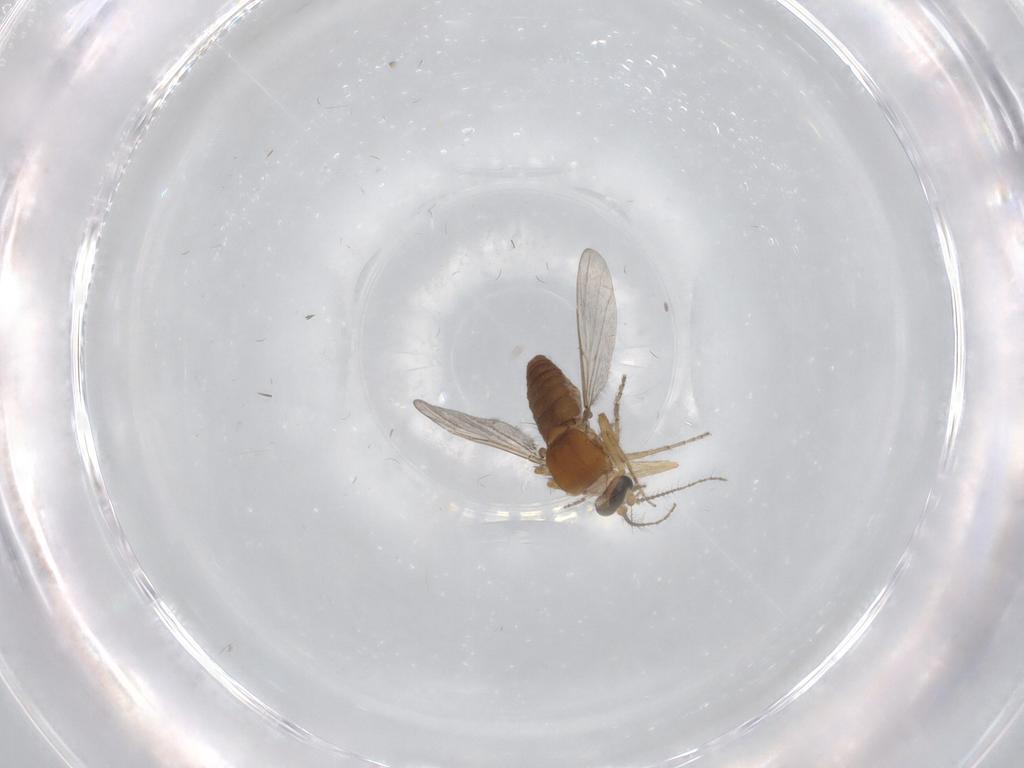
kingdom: Animalia
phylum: Arthropoda
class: Insecta
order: Diptera
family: Ceratopogonidae
